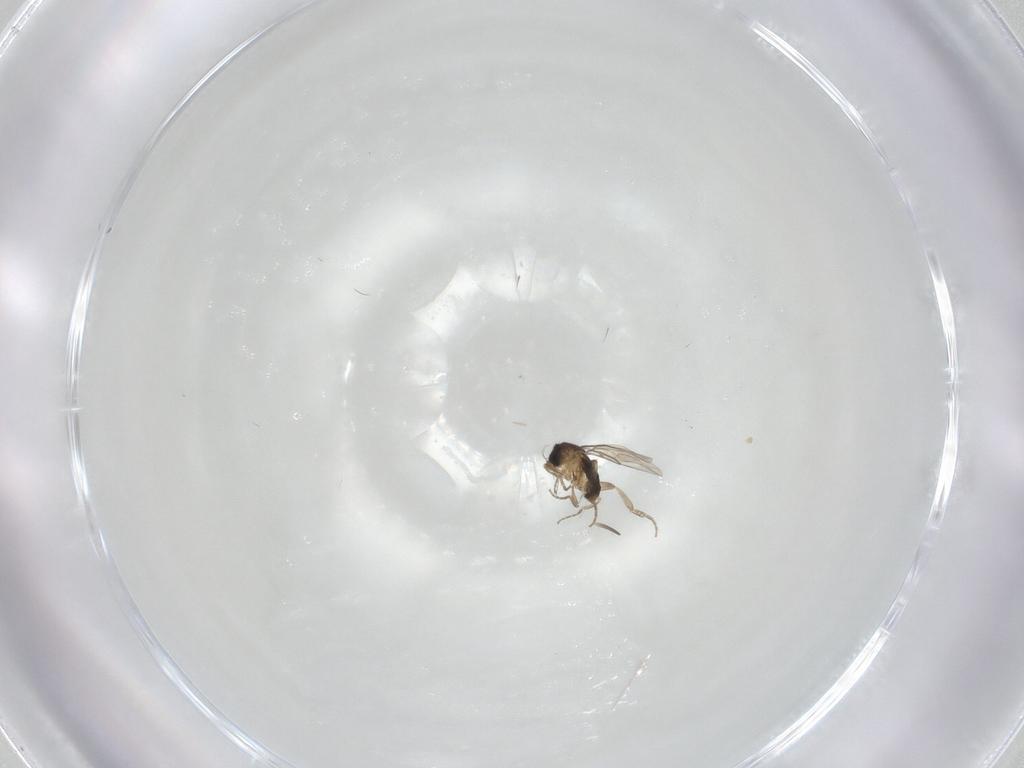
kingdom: Animalia
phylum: Arthropoda
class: Insecta
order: Diptera
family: Phoridae
